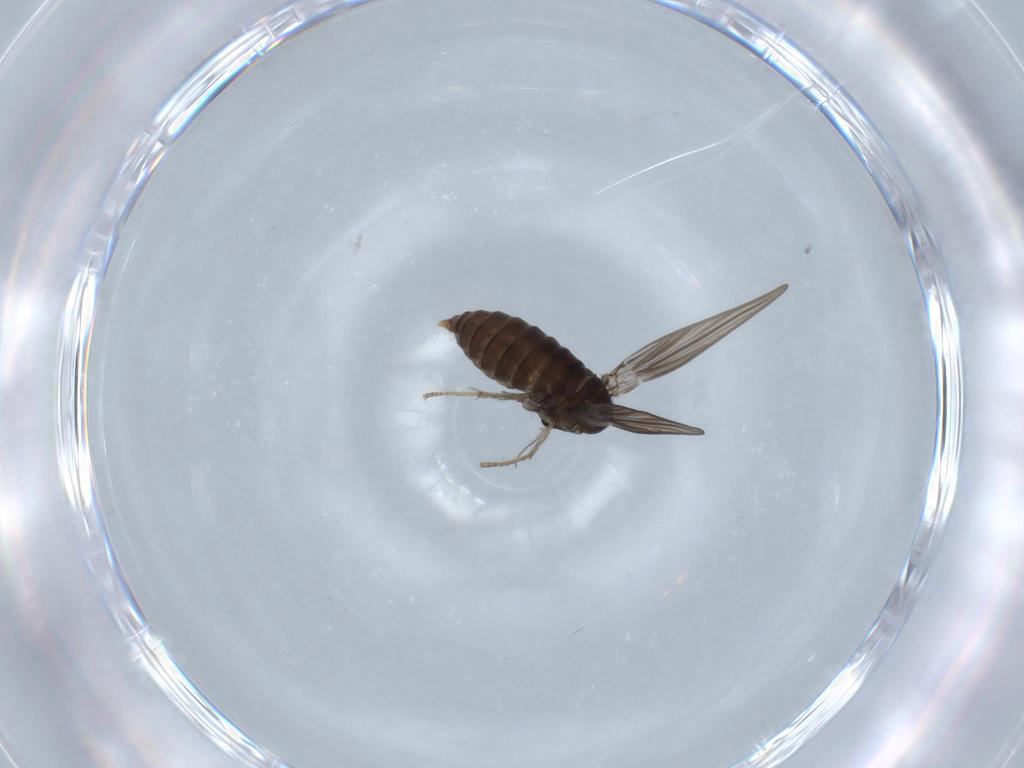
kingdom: Animalia
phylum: Arthropoda
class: Insecta
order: Diptera
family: Psychodidae
